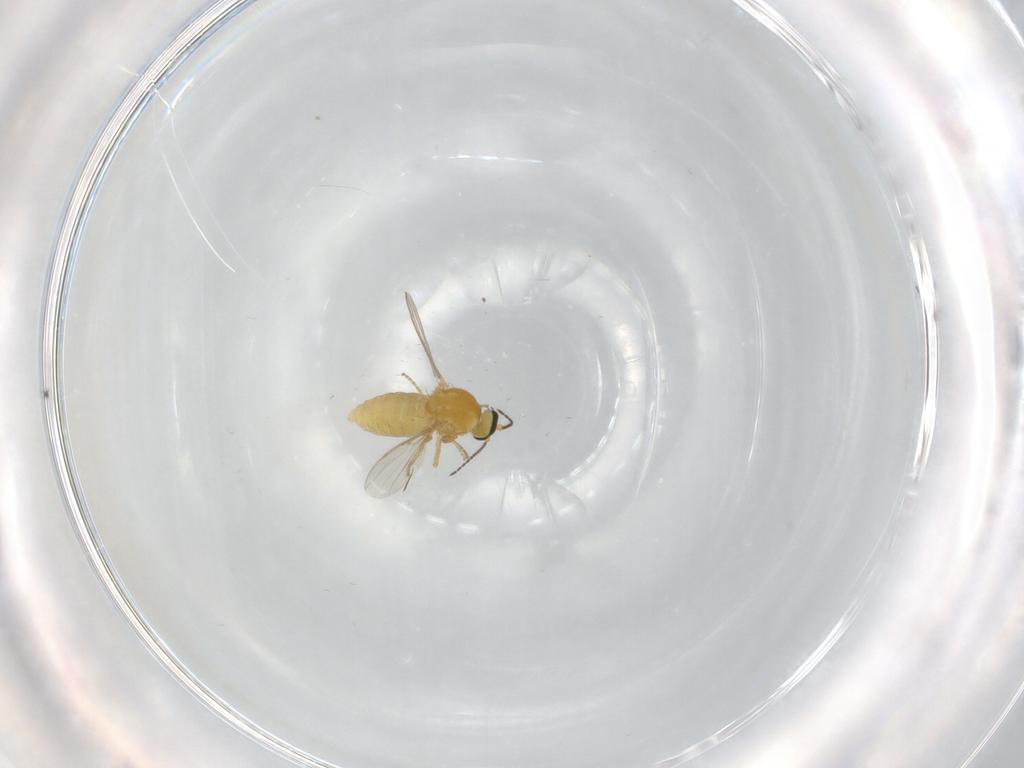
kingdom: Animalia
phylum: Arthropoda
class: Insecta
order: Diptera
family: Ceratopogonidae
